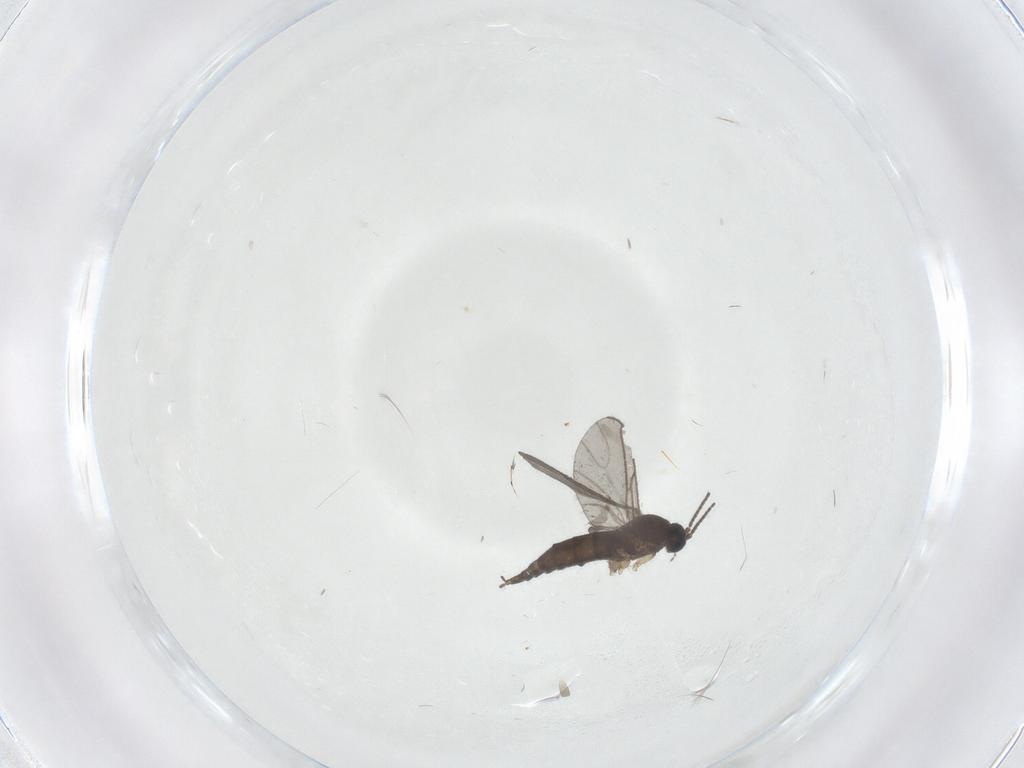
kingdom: Animalia
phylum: Arthropoda
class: Insecta
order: Diptera
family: Sciaridae
